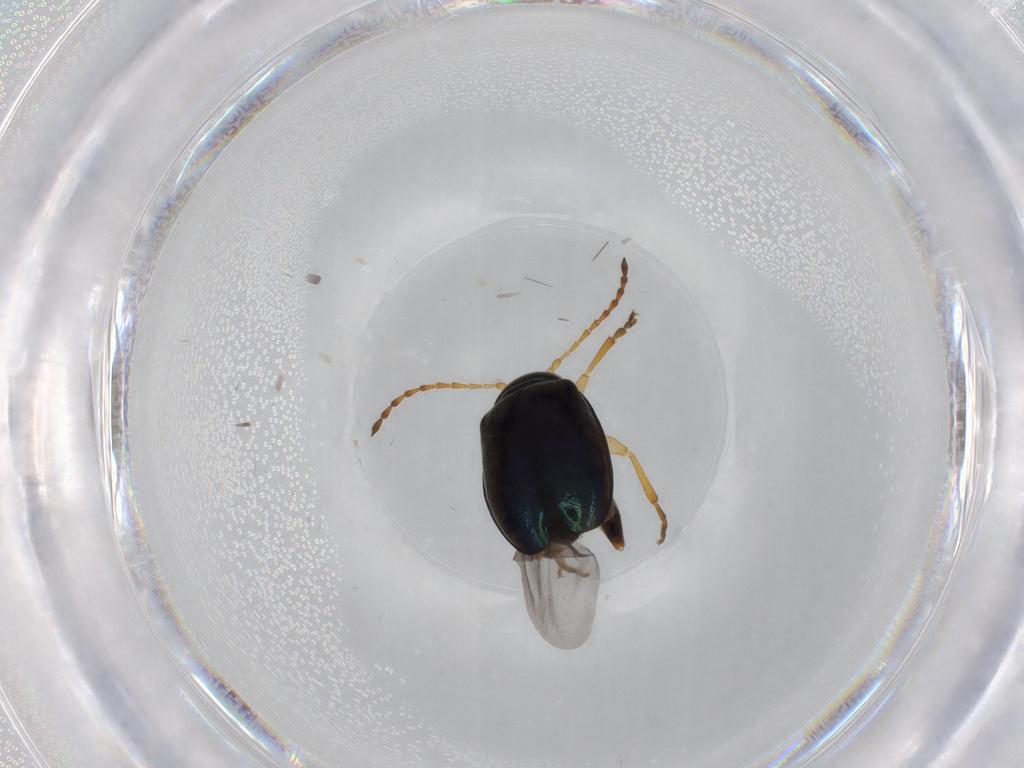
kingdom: Animalia
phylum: Arthropoda
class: Insecta
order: Coleoptera
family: Chrysomelidae
